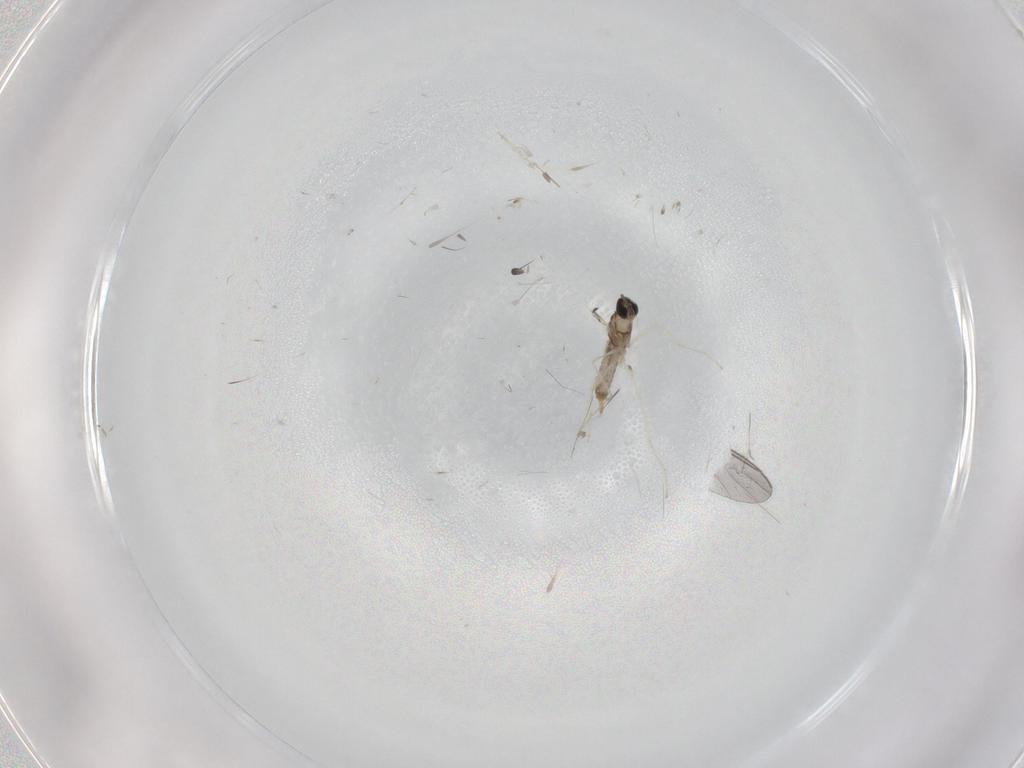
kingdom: Animalia
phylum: Arthropoda
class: Insecta
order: Diptera
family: Cecidomyiidae
